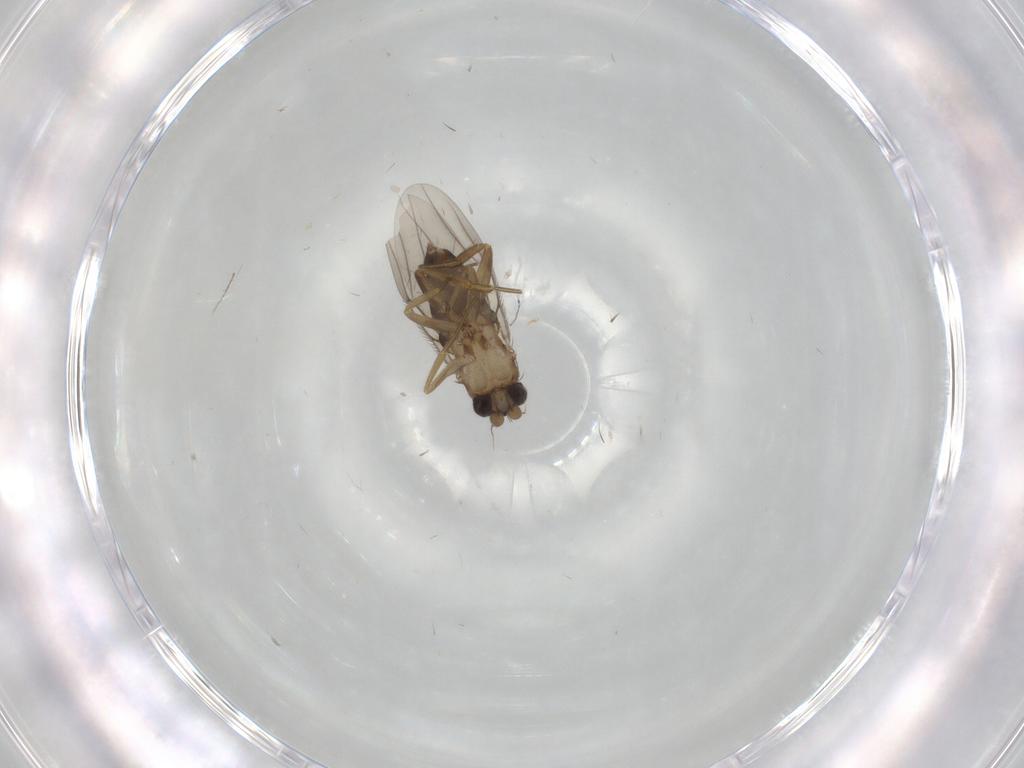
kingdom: Animalia
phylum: Arthropoda
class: Insecta
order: Diptera
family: Phoridae
